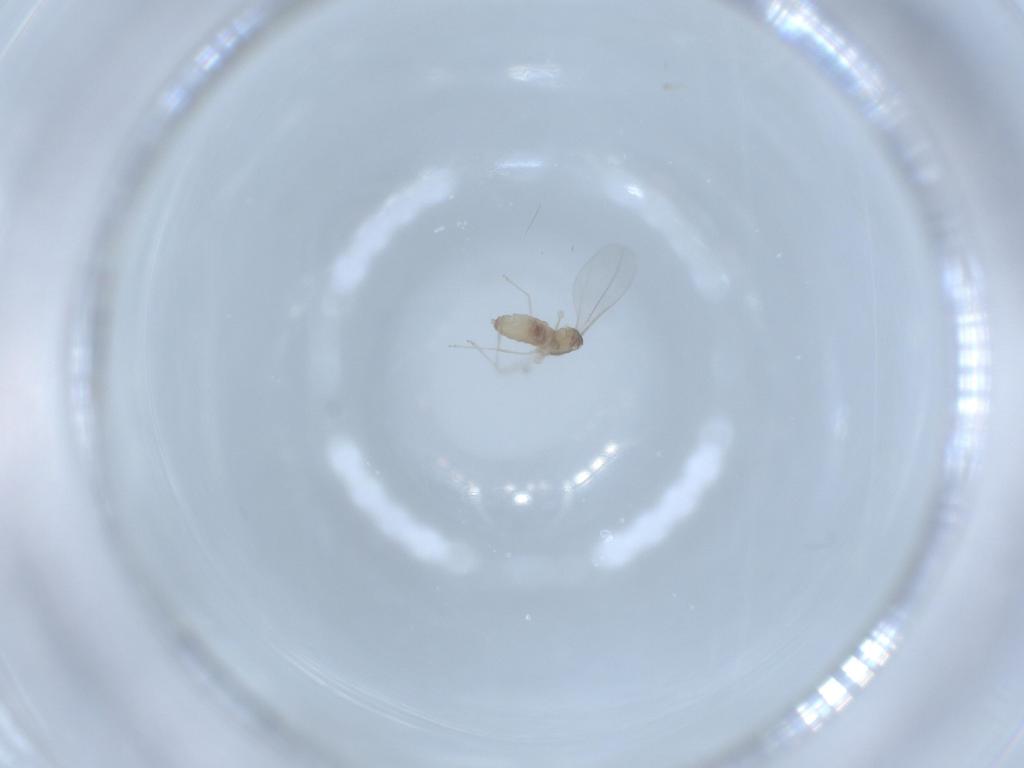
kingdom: Animalia
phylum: Arthropoda
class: Insecta
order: Diptera
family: Cecidomyiidae
